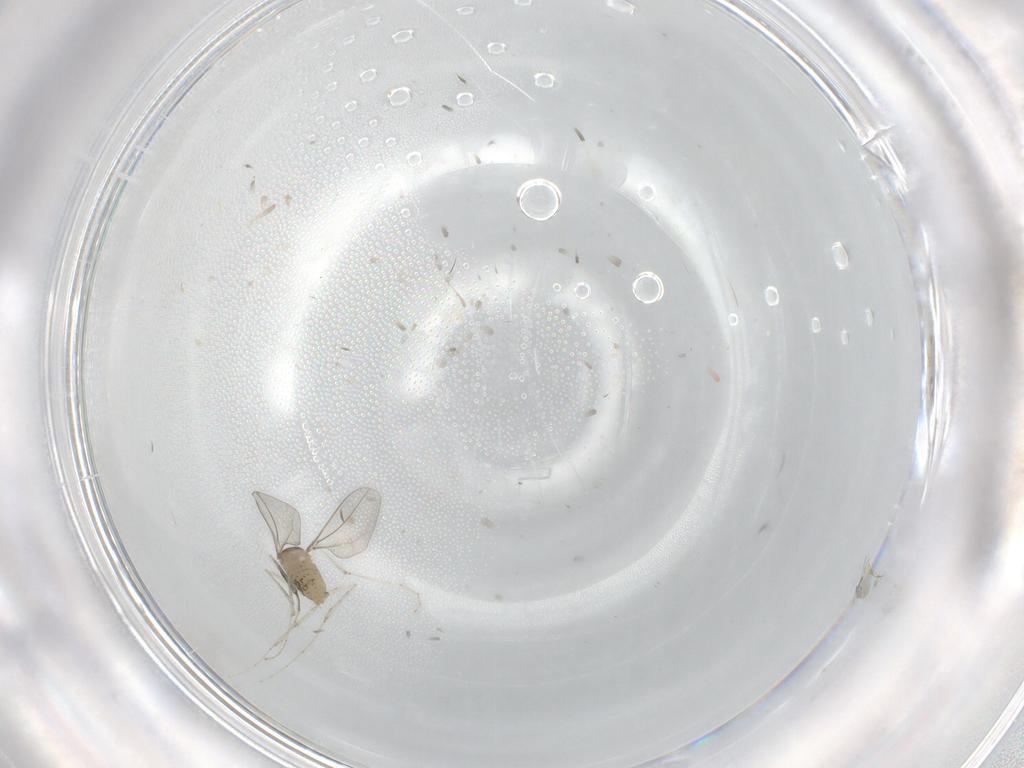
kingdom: Animalia
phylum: Arthropoda
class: Insecta
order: Diptera
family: Cecidomyiidae
